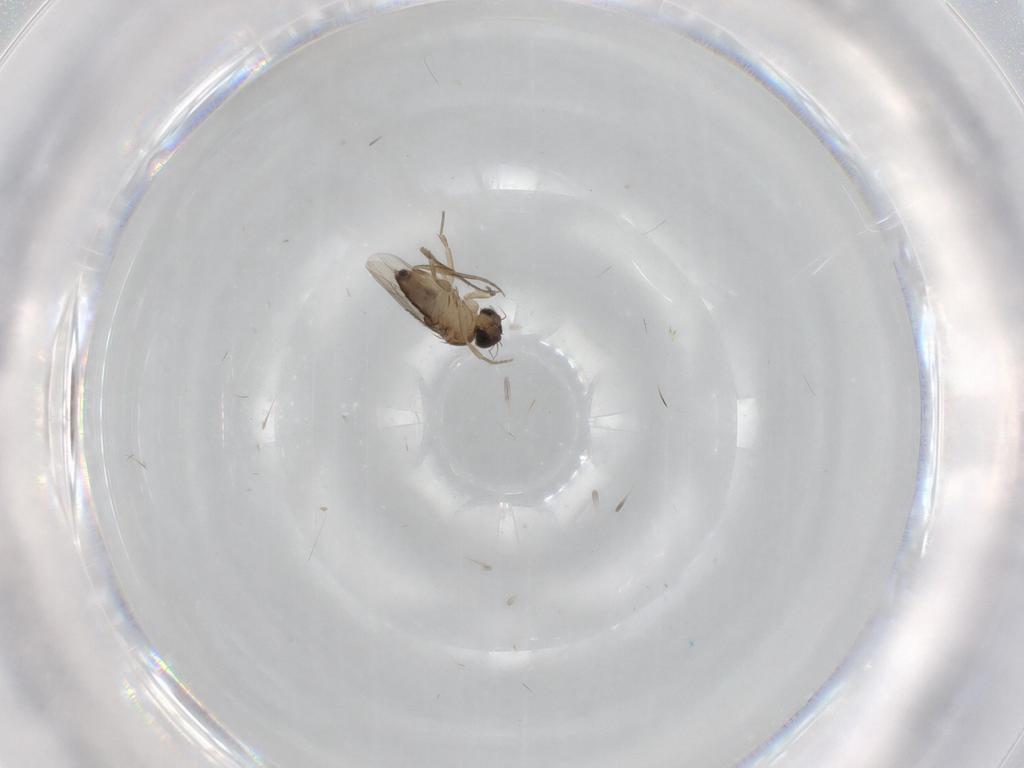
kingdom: Animalia
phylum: Arthropoda
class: Insecta
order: Diptera
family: Phoridae
